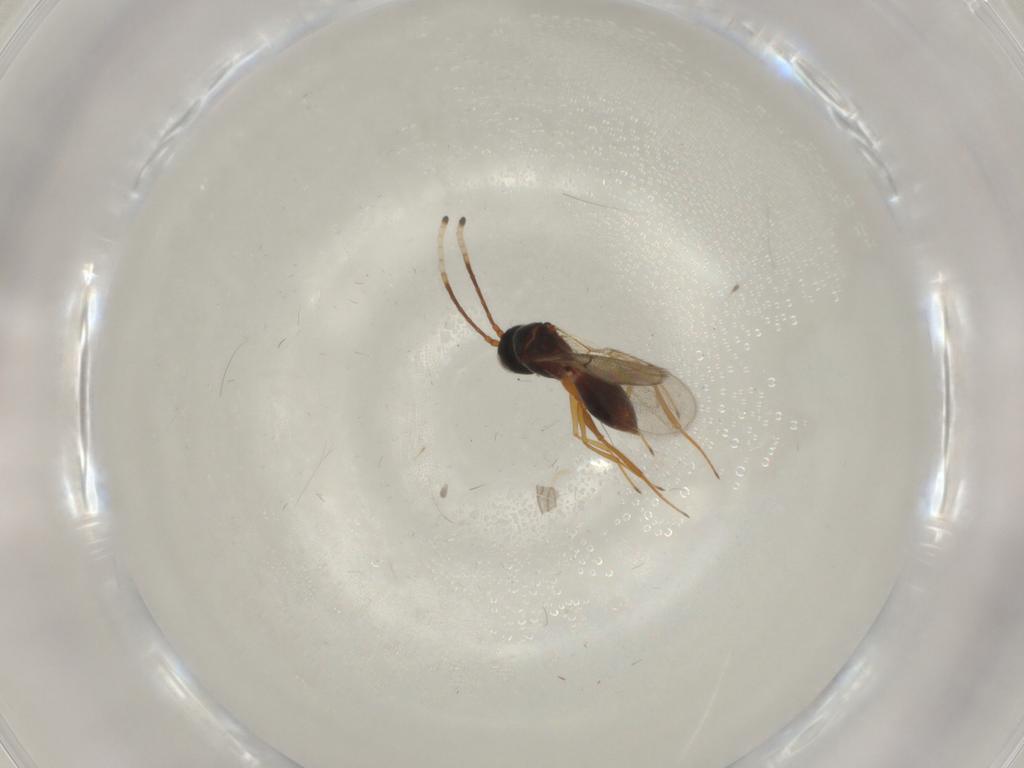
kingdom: Animalia
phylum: Arthropoda
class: Insecta
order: Hymenoptera
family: Figitidae
